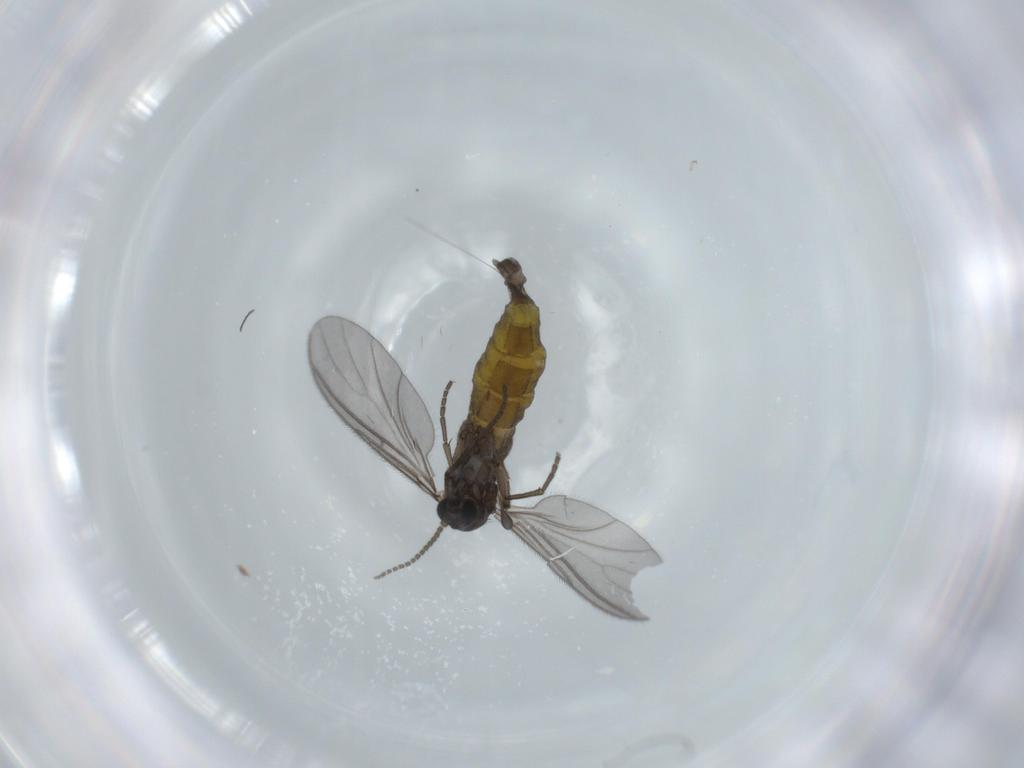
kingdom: Animalia
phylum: Arthropoda
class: Insecta
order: Diptera
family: Sciaridae
